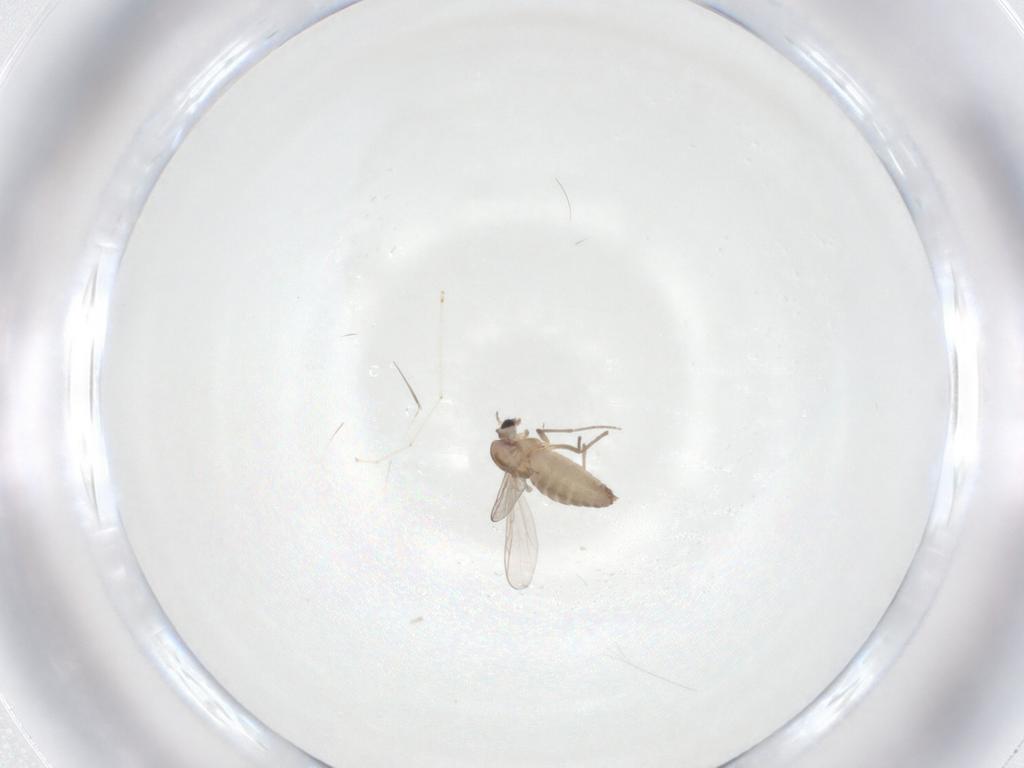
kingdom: Animalia
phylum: Arthropoda
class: Insecta
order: Diptera
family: Chironomidae
